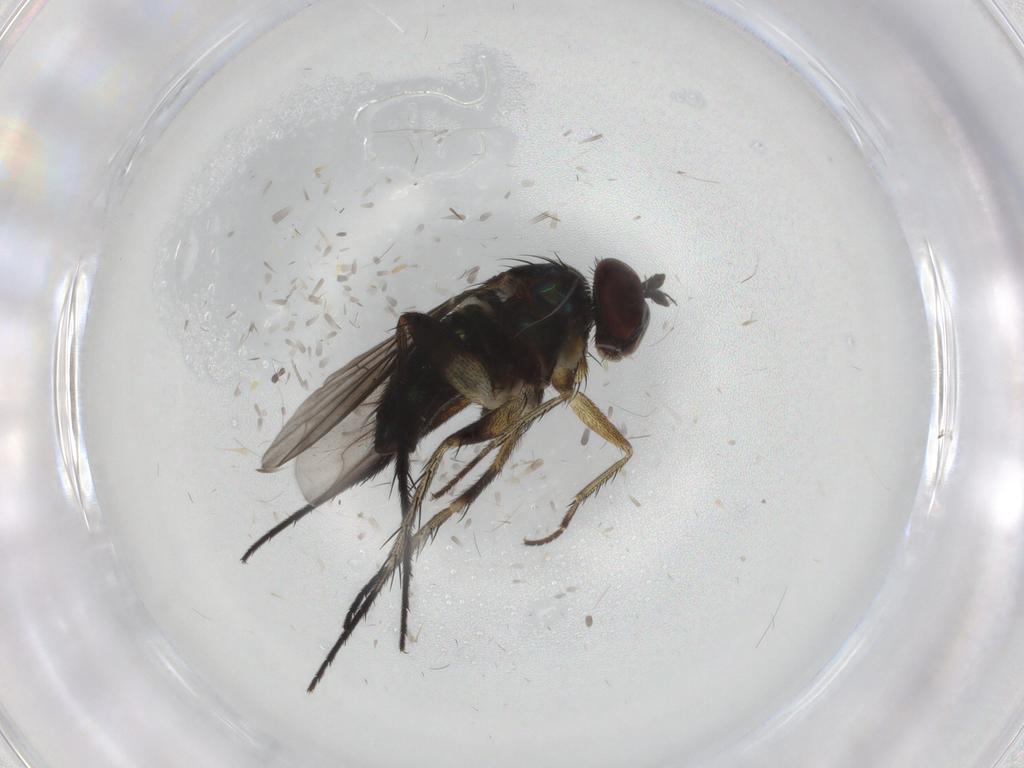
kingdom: Animalia
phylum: Arthropoda
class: Insecta
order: Diptera
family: Dolichopodidae
